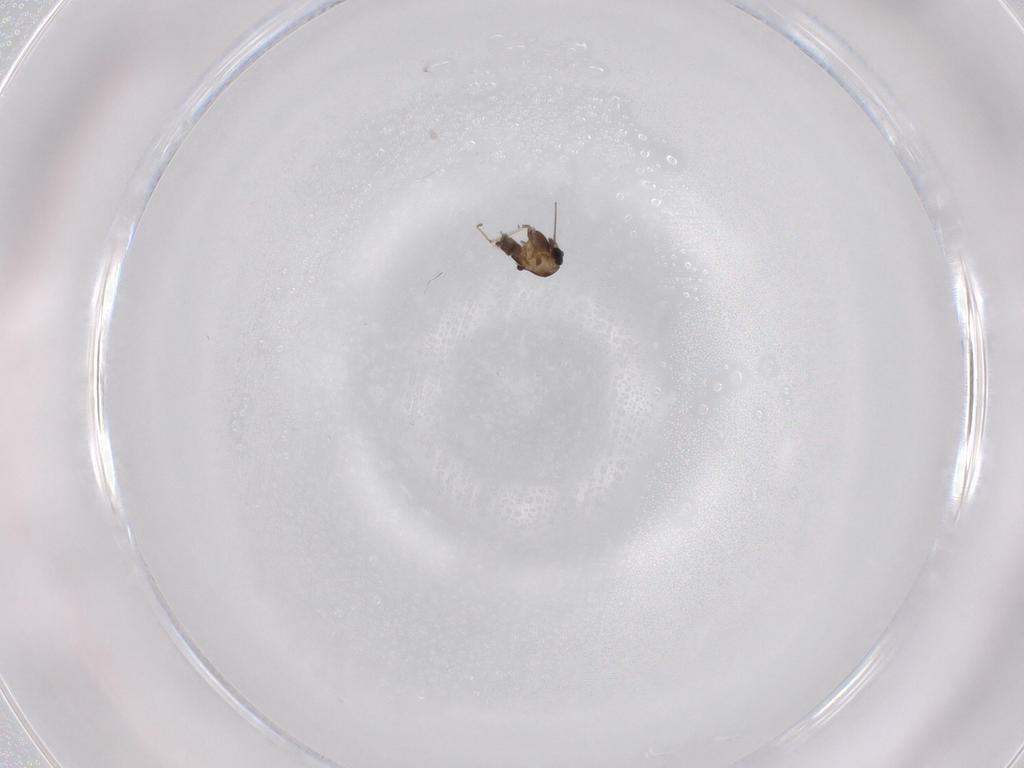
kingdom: Animalia
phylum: Arthropoda
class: Insecta
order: Diptera
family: Chironomidae
